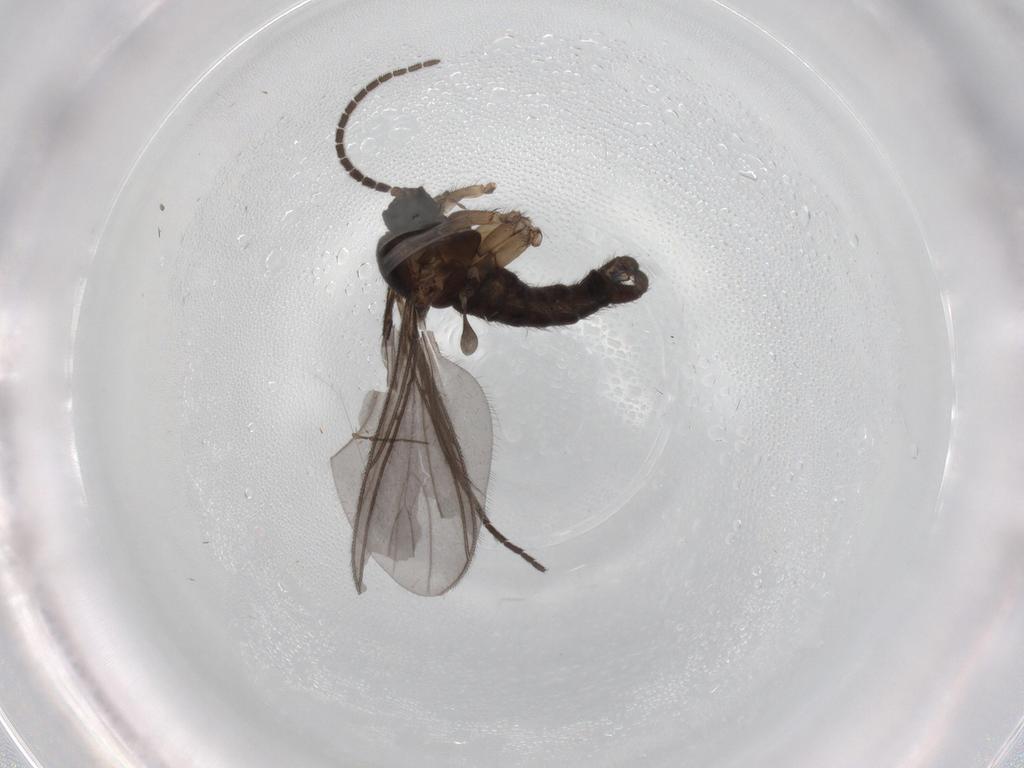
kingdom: Animalia
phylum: Arthropoda
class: Insecta
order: Diptera
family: Sciaridae
